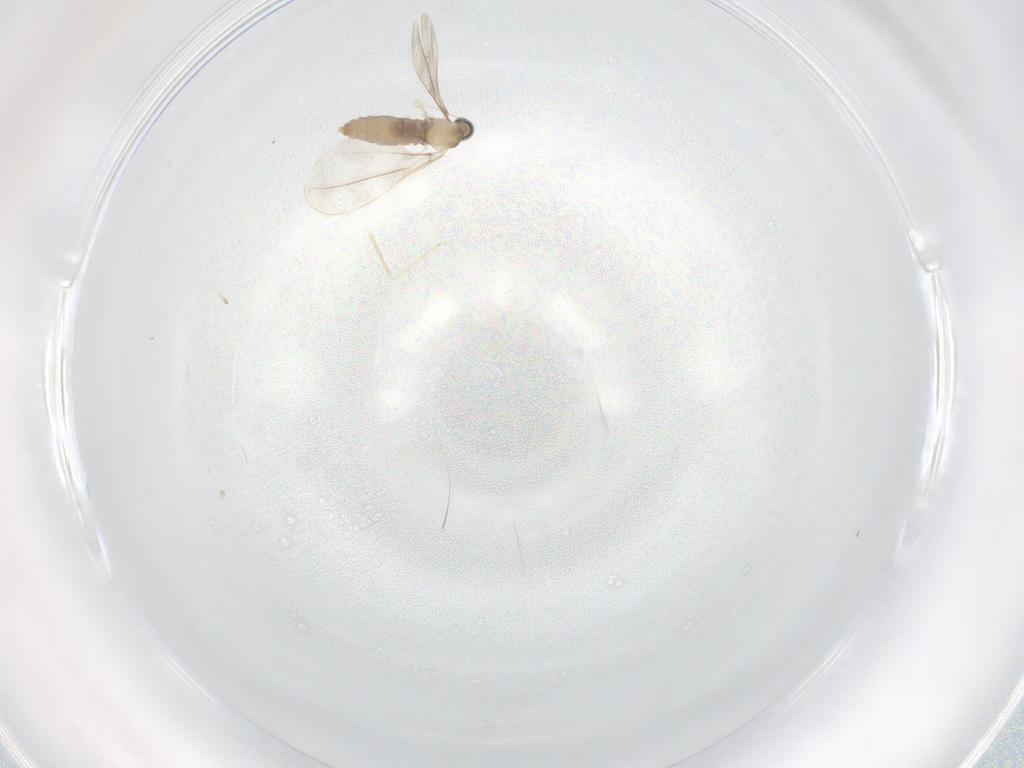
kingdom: Animalia
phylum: Arthropoda
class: Insecta
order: Diptera
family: Cecidomyiidae
